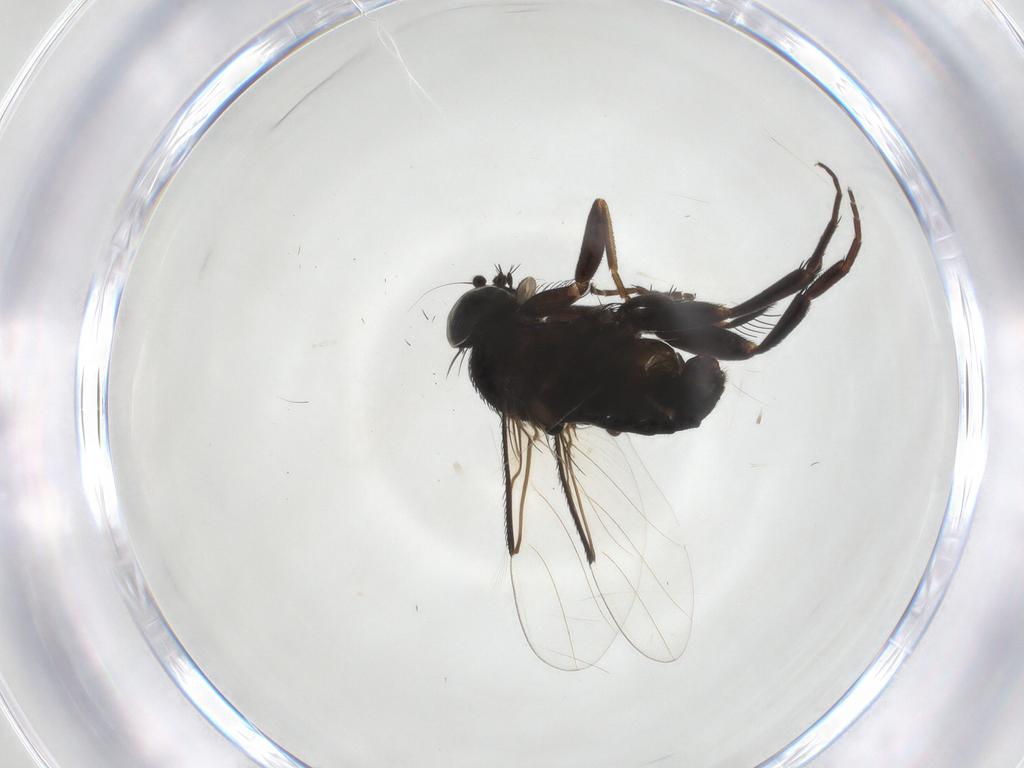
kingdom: Animalia
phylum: Arthropoda
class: Insecta
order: Diptera
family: Phoridae
